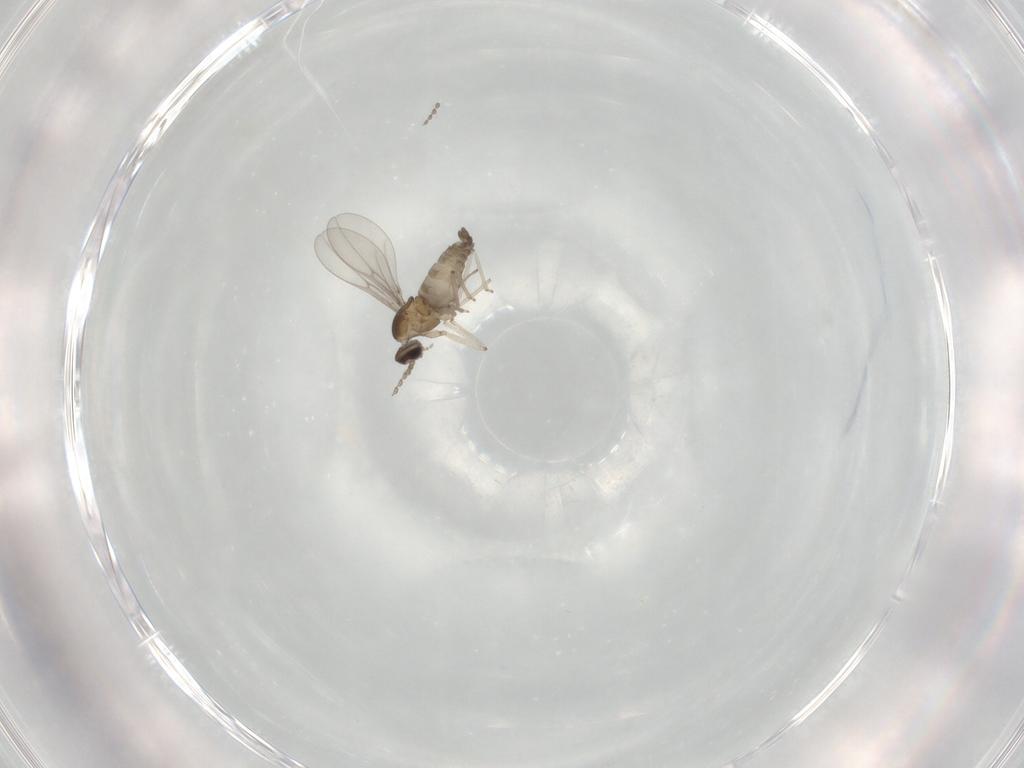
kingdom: Animalia
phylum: Arthropoda
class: Insecta
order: Diptera
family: Cecidomyiidae
